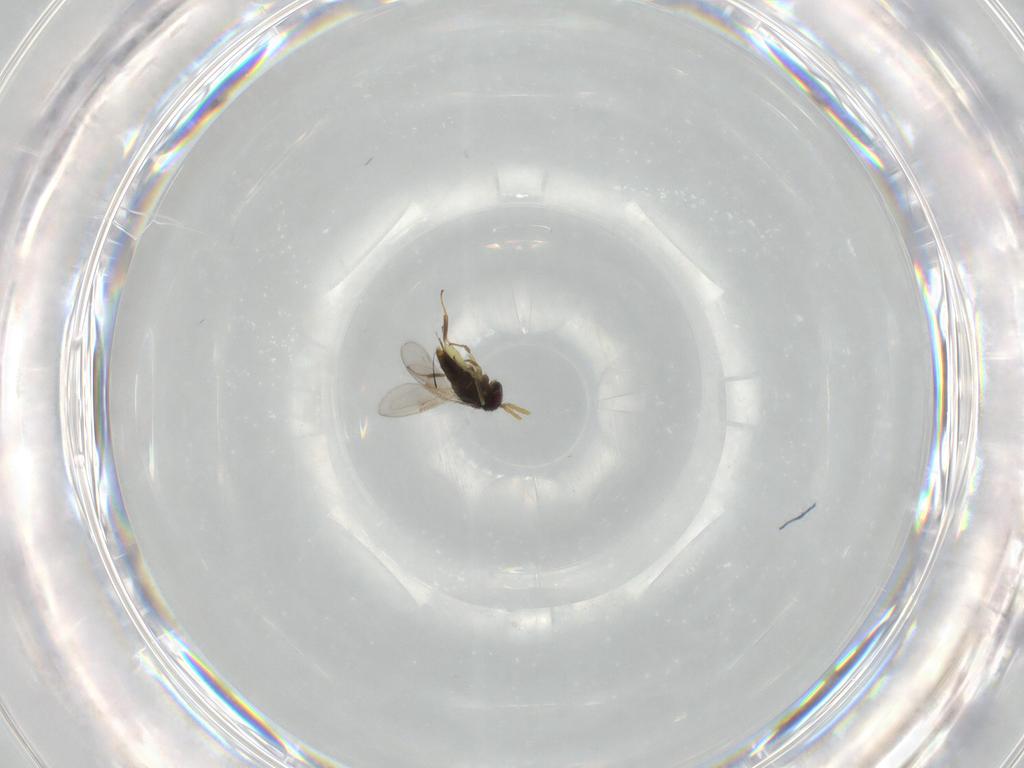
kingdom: Animalia
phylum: Arthropoda
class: Insecta
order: Hymenoptera
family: Aphelinidae
